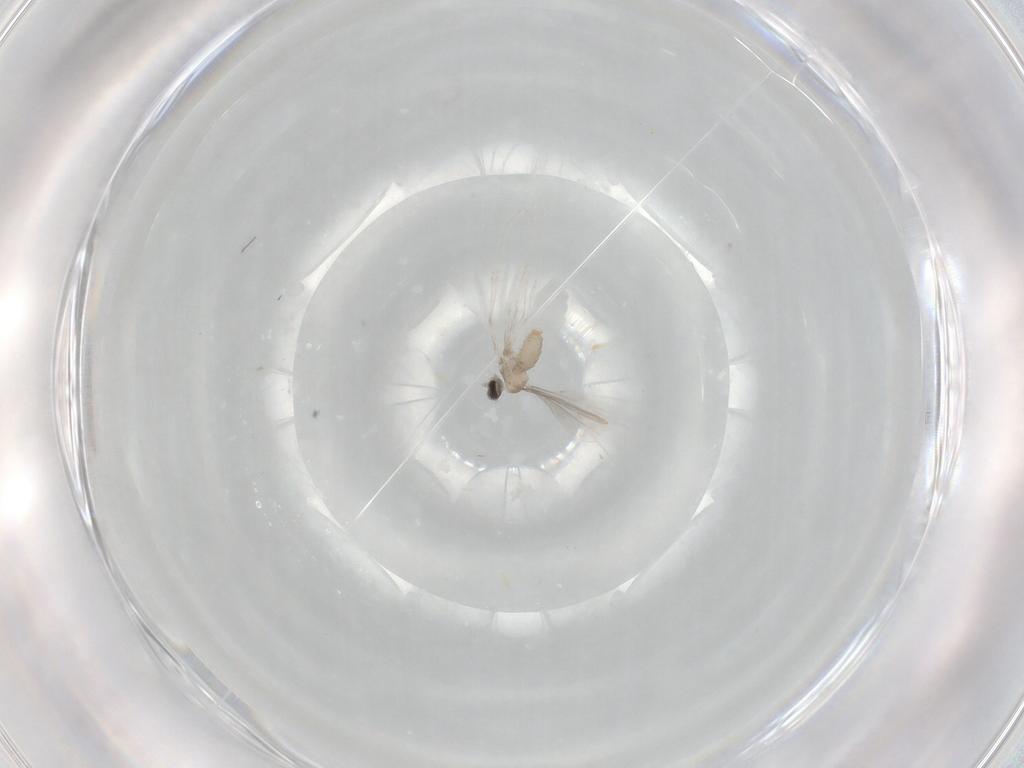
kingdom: Animalia
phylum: Arthropoda
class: Insecta
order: Diptera
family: Cecidomyiidae
